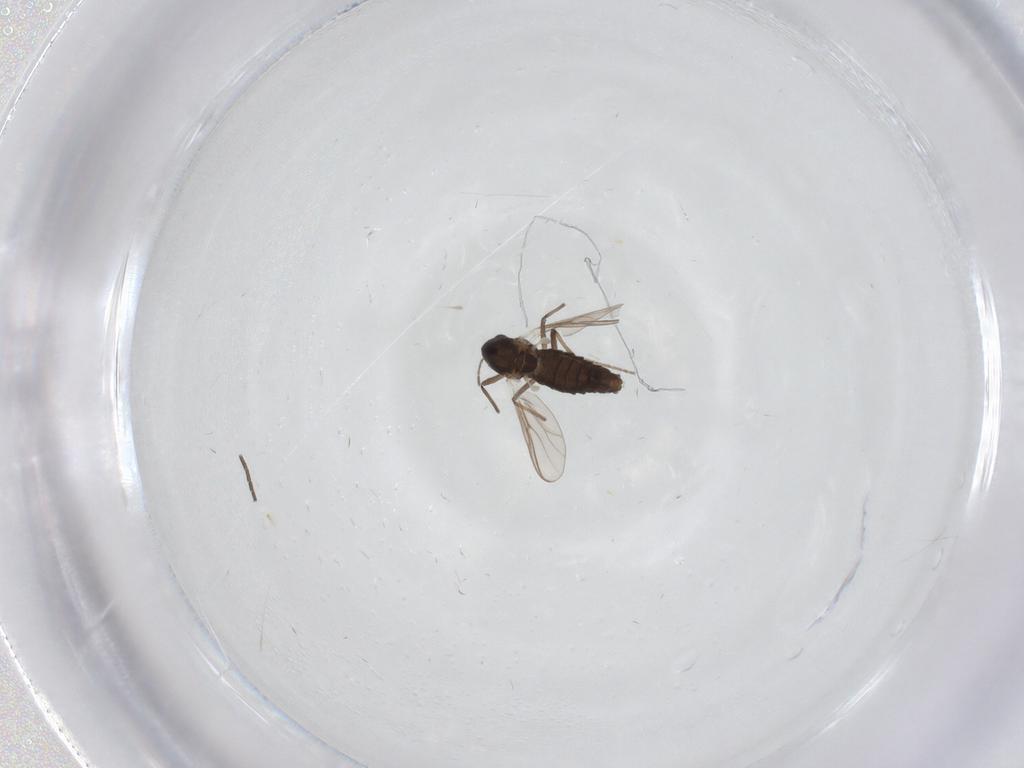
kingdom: Animalia
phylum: Arthropoda
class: Insecta
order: Diptera
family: Chironomidae
